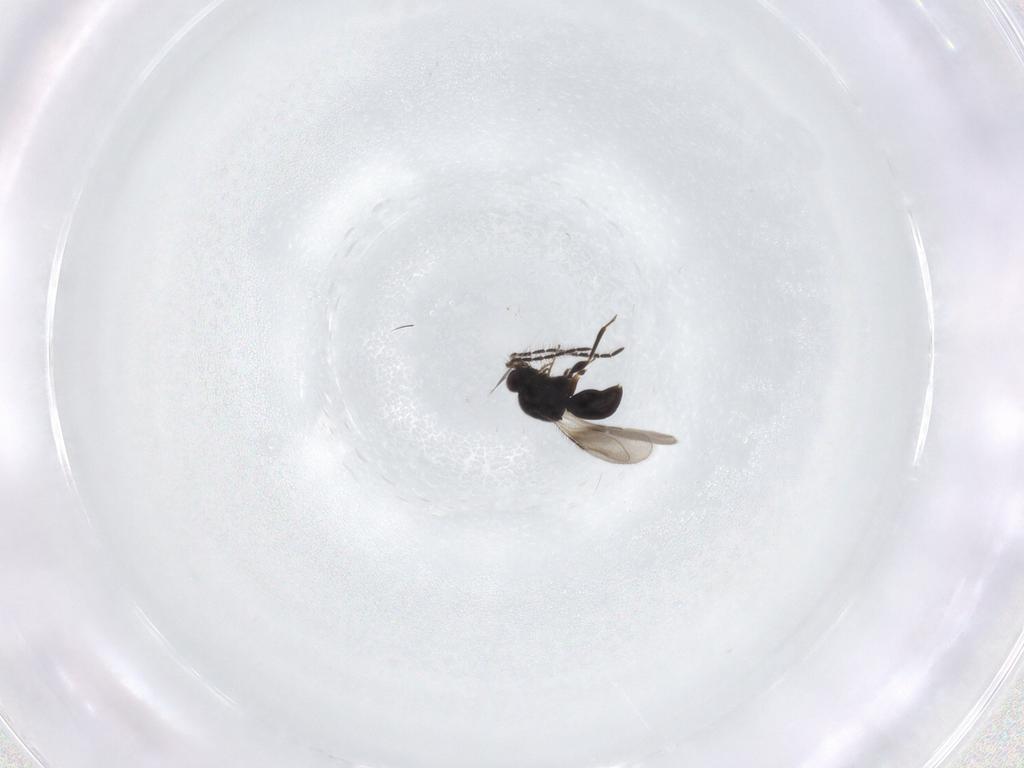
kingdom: Animalia
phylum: Arthropoda
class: Insecta
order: Hymenoptera
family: Ceraphronidae
